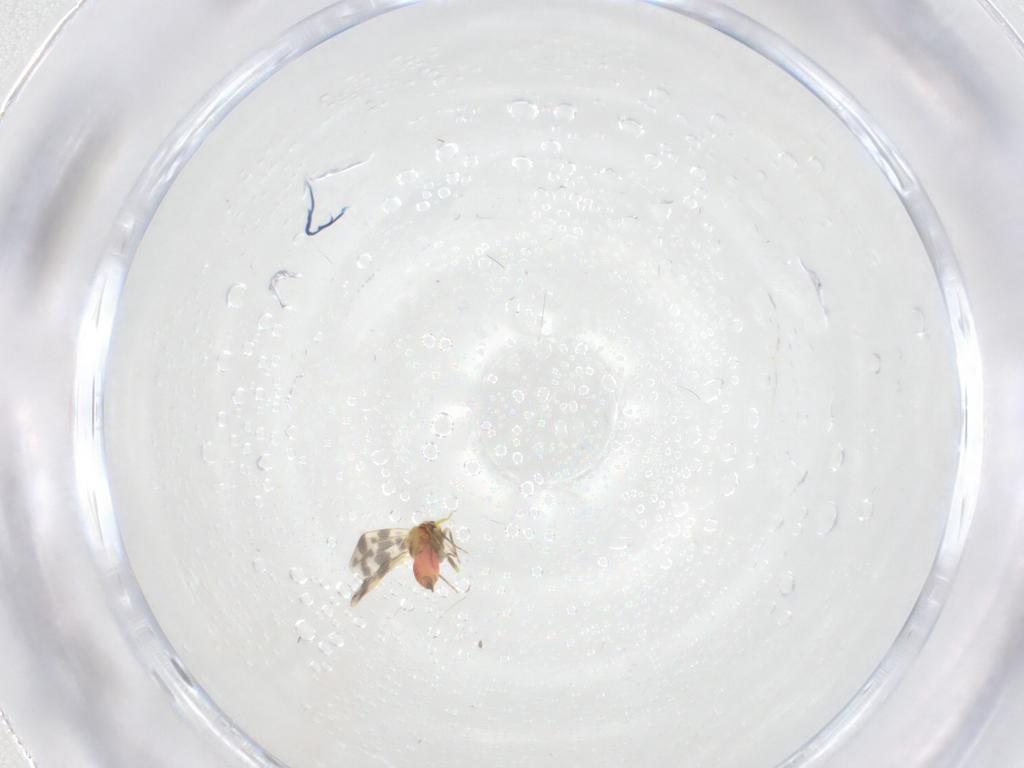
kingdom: Animalia
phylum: Arthropoda
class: Insecta
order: Hemiptera
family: Aleyrodidae
